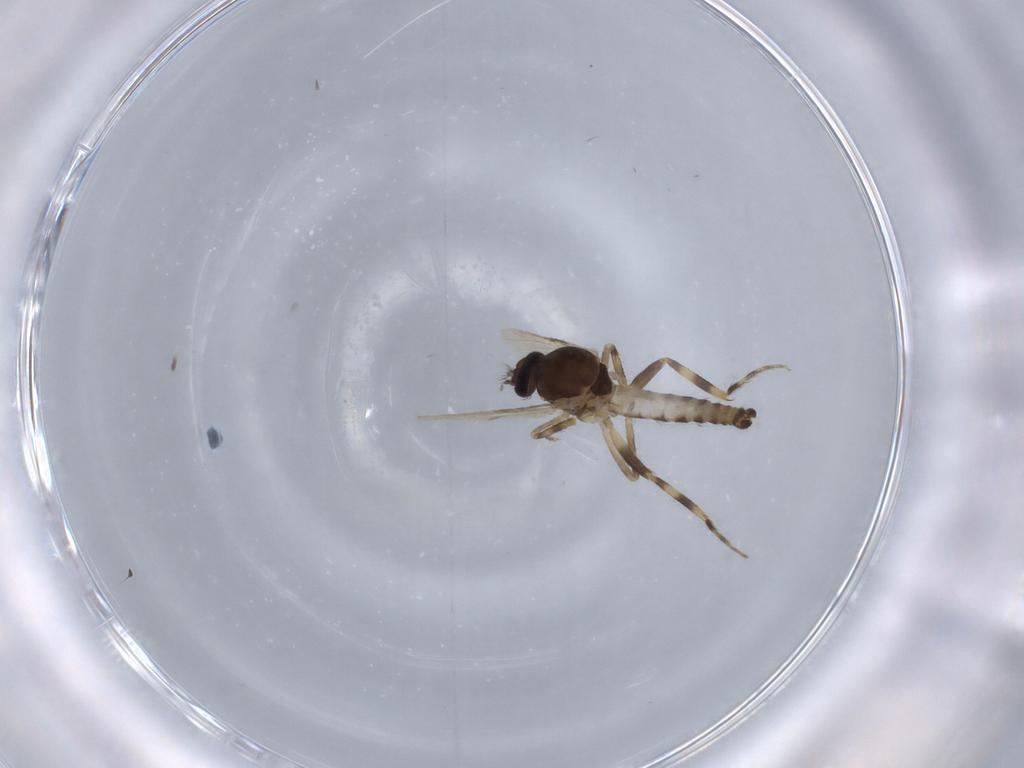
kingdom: Animalia
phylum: Arthropoda
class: Insecta
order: Diptera
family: Ceratopogonidae
